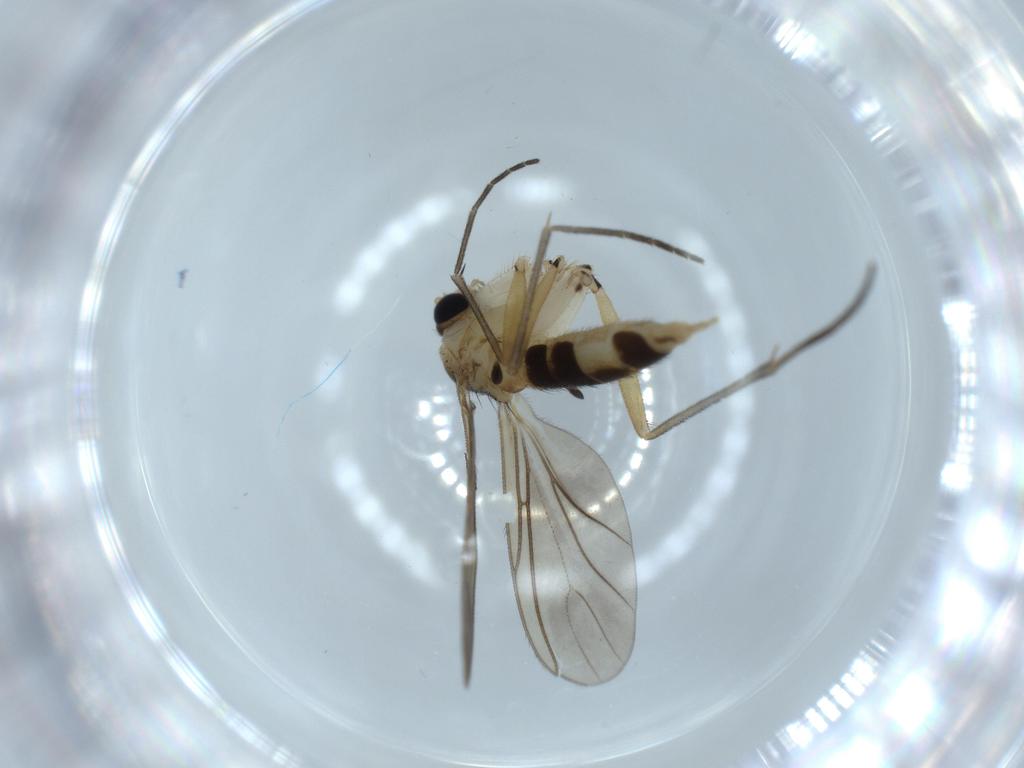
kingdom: Animalia
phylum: Arthropoda
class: Insecta
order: Diptera
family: Sciaridae
